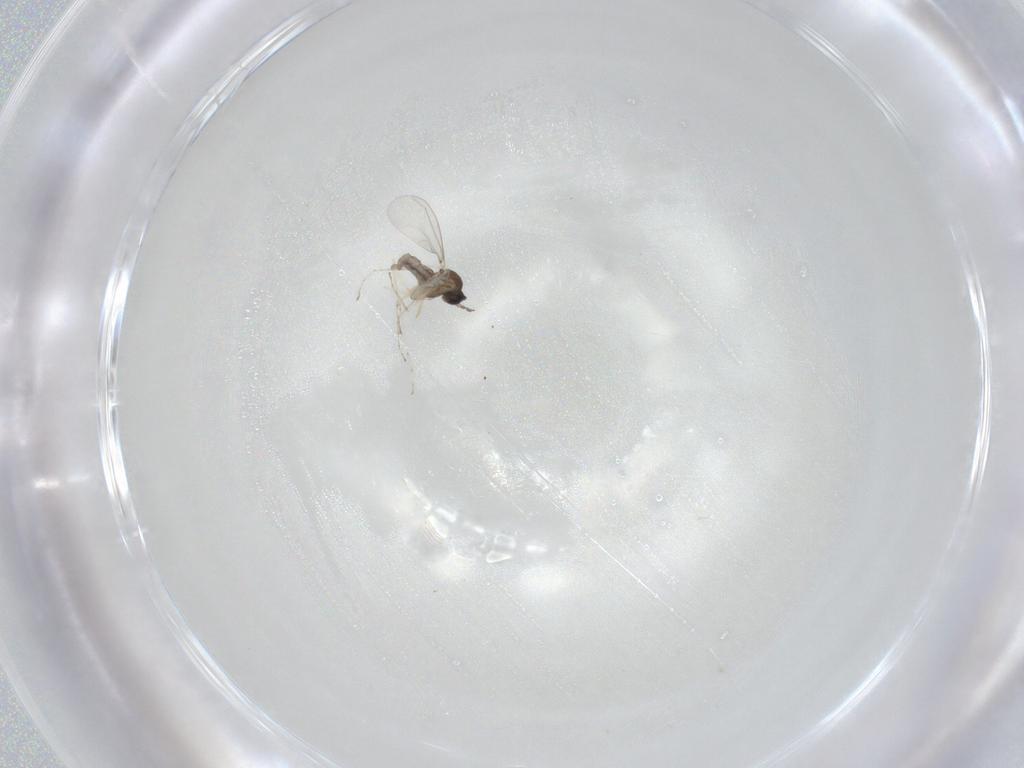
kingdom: Animalia
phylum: Arthropoda
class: Insecta
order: Diptera
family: Cecidomyiidae
